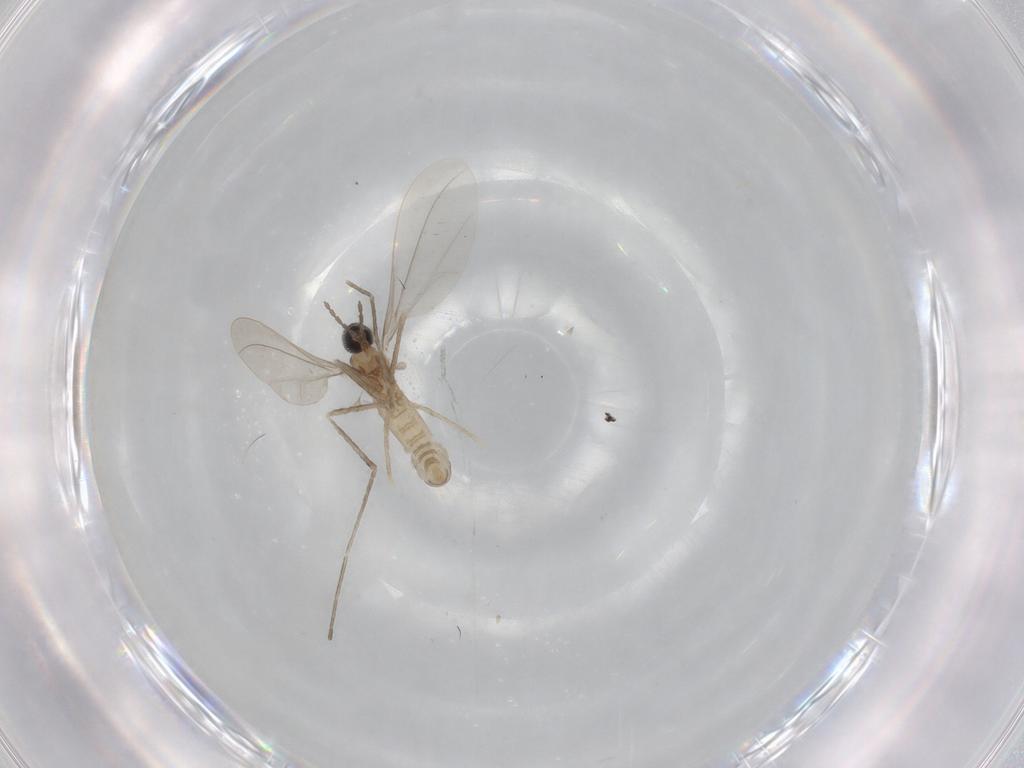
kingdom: Animalia
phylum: Arthropoda
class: Insecta
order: Diptera
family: Cecidomyiidae
